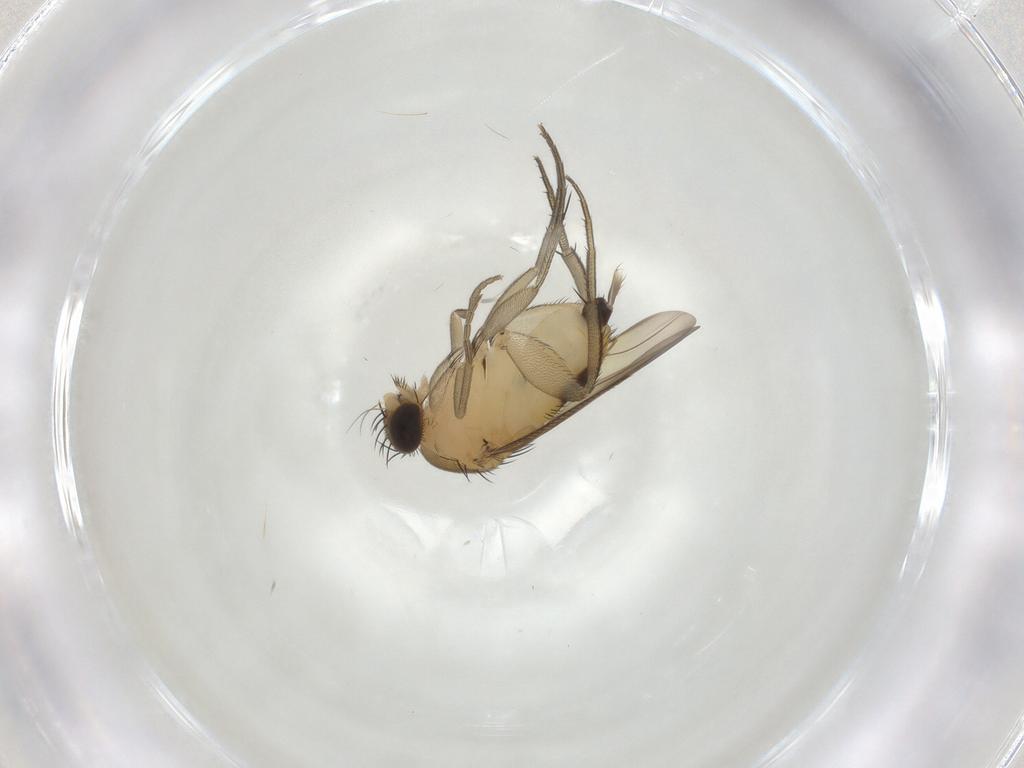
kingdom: Animalia
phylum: Arthropoda
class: Insecta
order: Diptera
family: Phoridae
